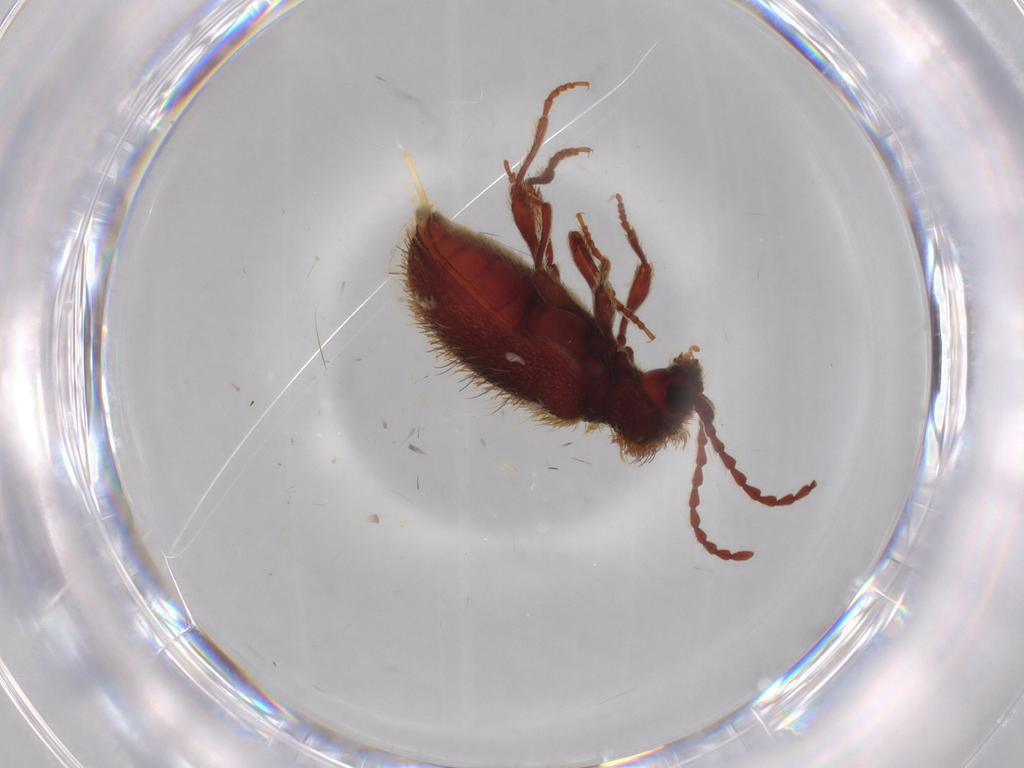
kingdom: Animalia
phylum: Arthropoda
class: Insecta
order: Coleoptera
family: Ptinidae
